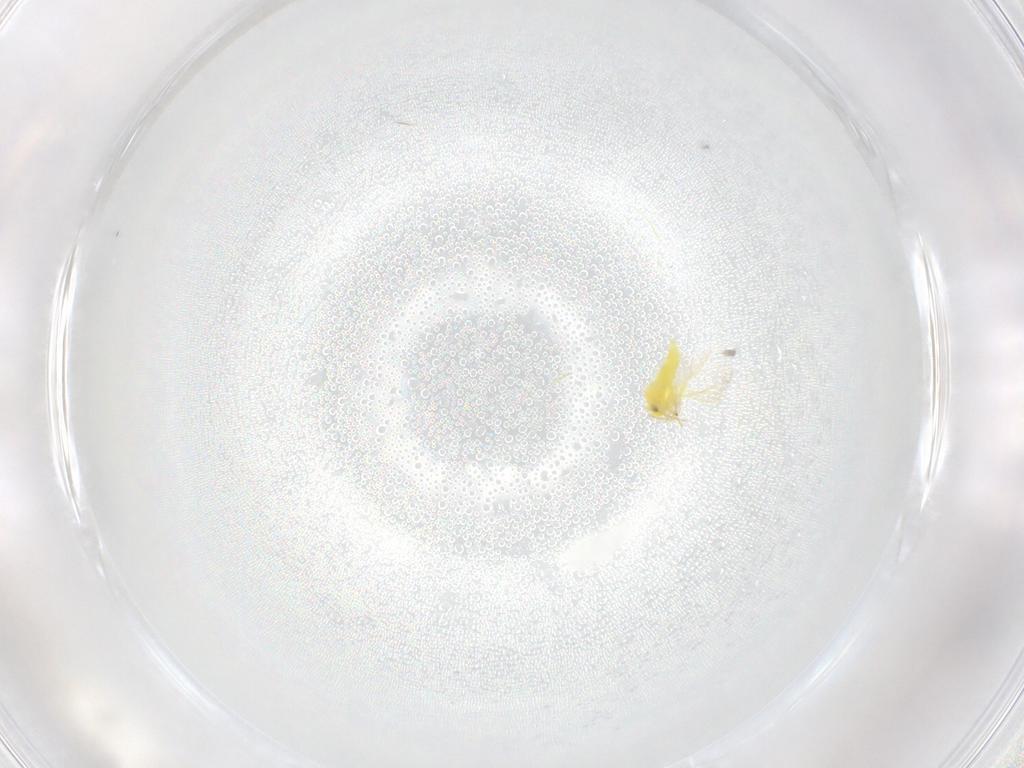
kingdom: Animalia
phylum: Arthropoda
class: Insecta
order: Hemiptera
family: Aleyrodidae
